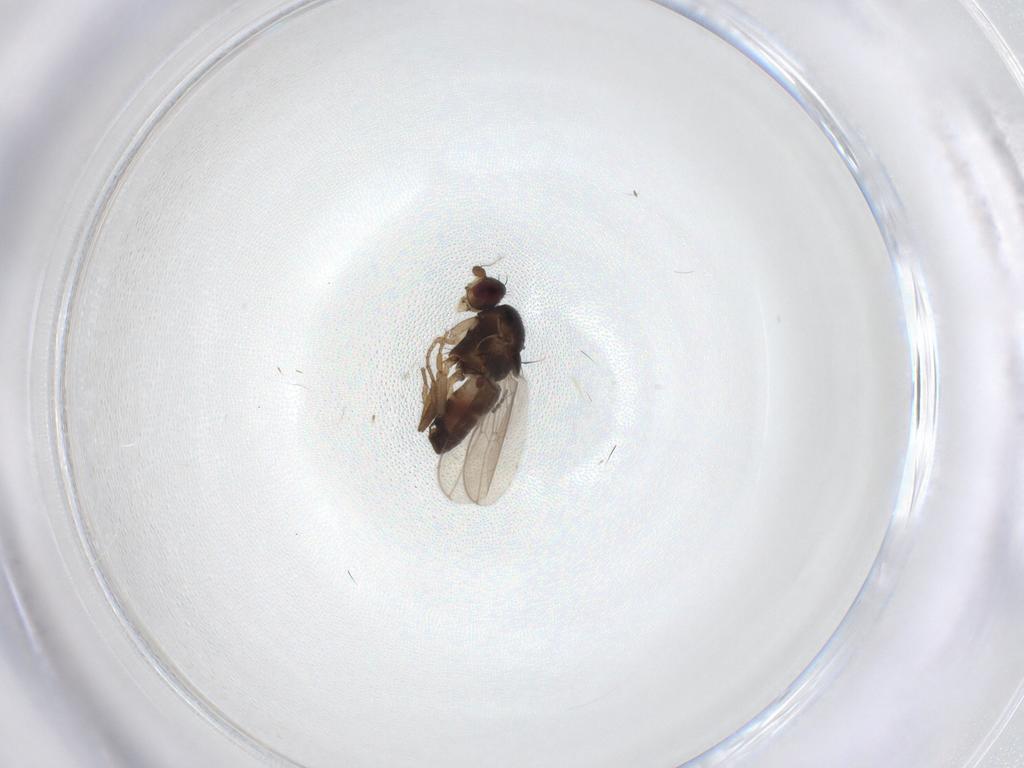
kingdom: Animalia
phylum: Arthropoda
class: Insecta
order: Diptera
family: Sphaeroceridae
